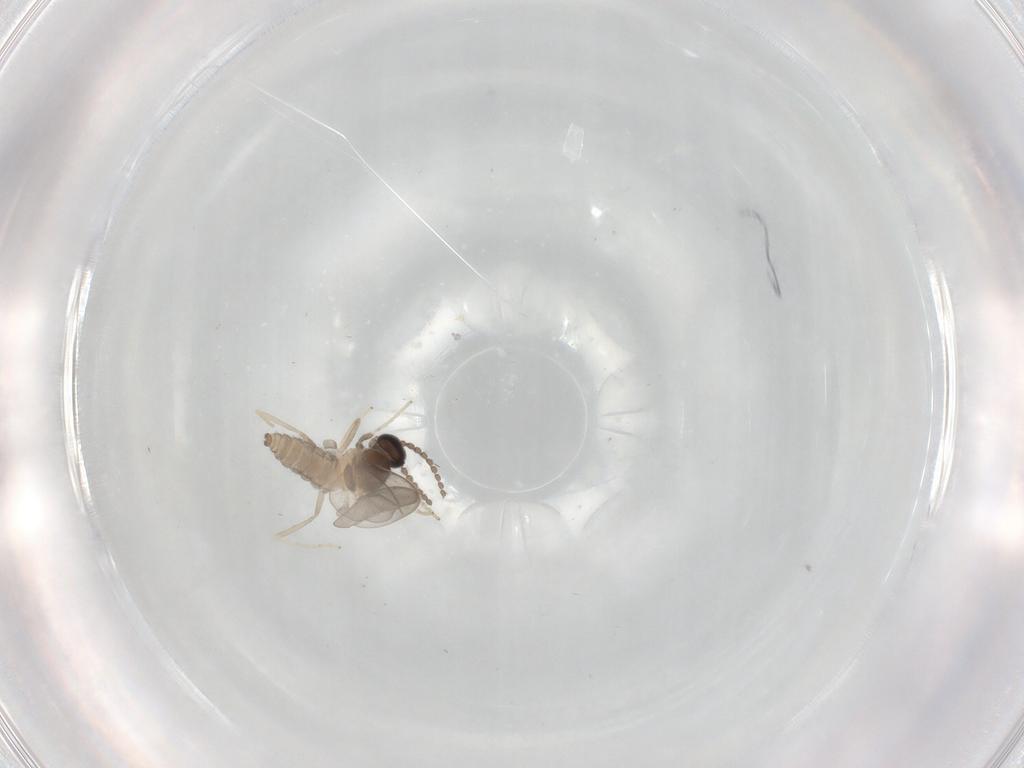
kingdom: Animalia
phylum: Arthropoda
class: Insecta
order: Diptera
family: Cecidomyiidae
